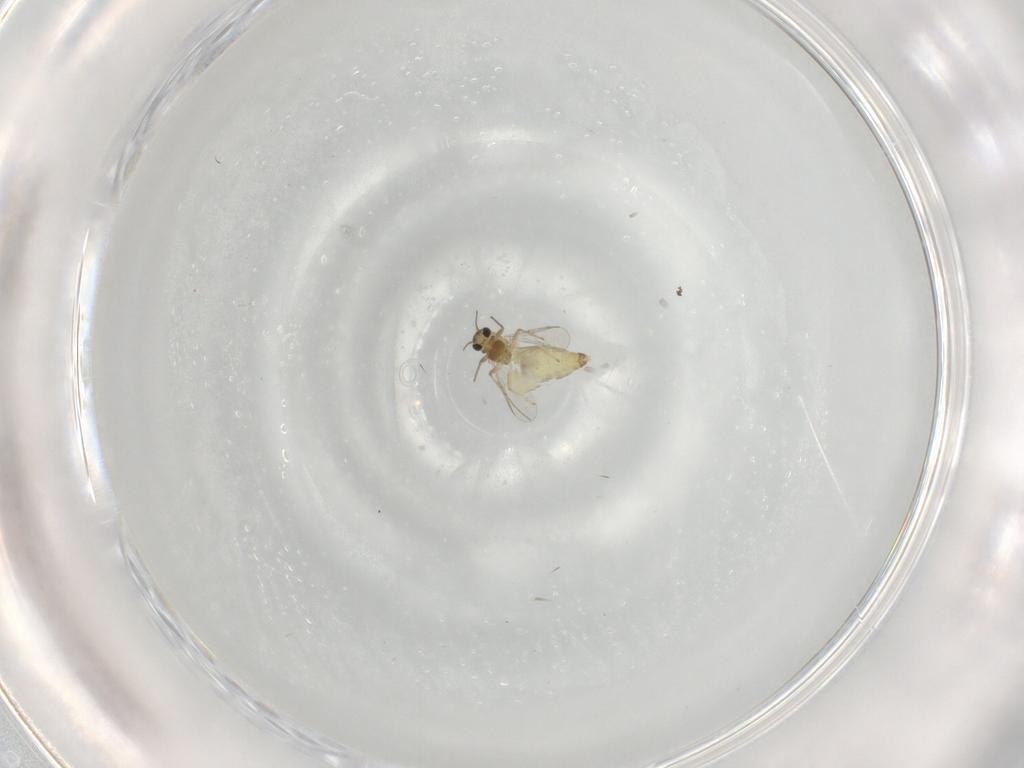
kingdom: Animalia
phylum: Arthropoda
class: Insecta
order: Diptera
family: Chironomidae
